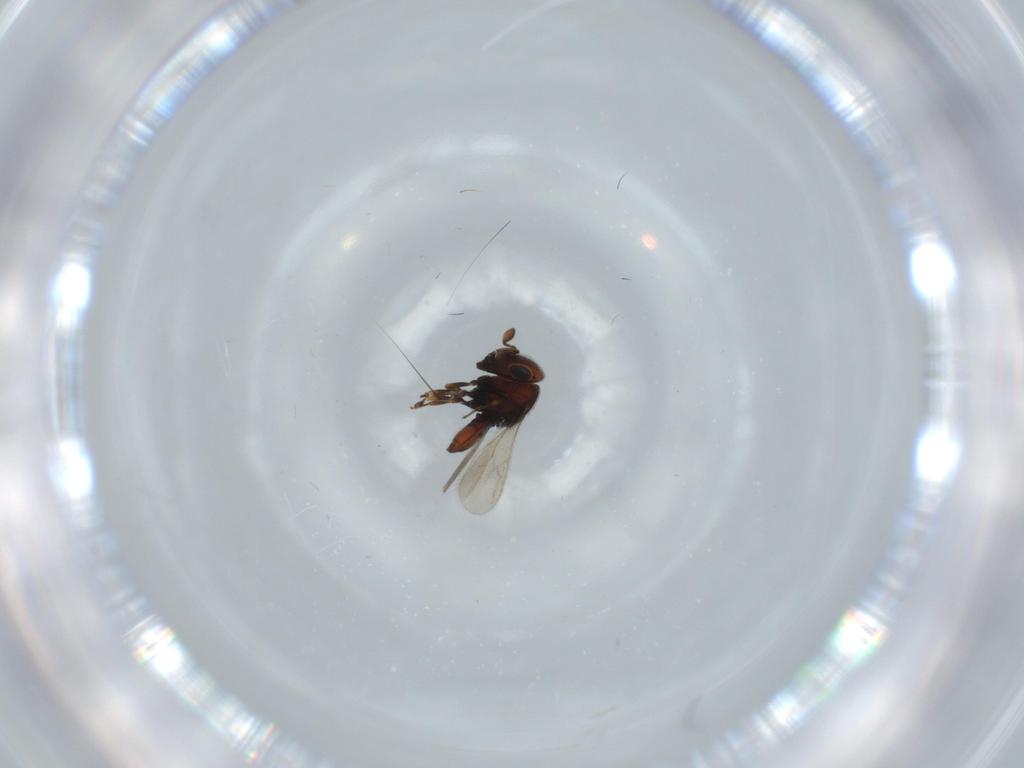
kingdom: Animalia
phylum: Arthropoda
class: Insecta
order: Hymenoptera
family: Scelionidae
